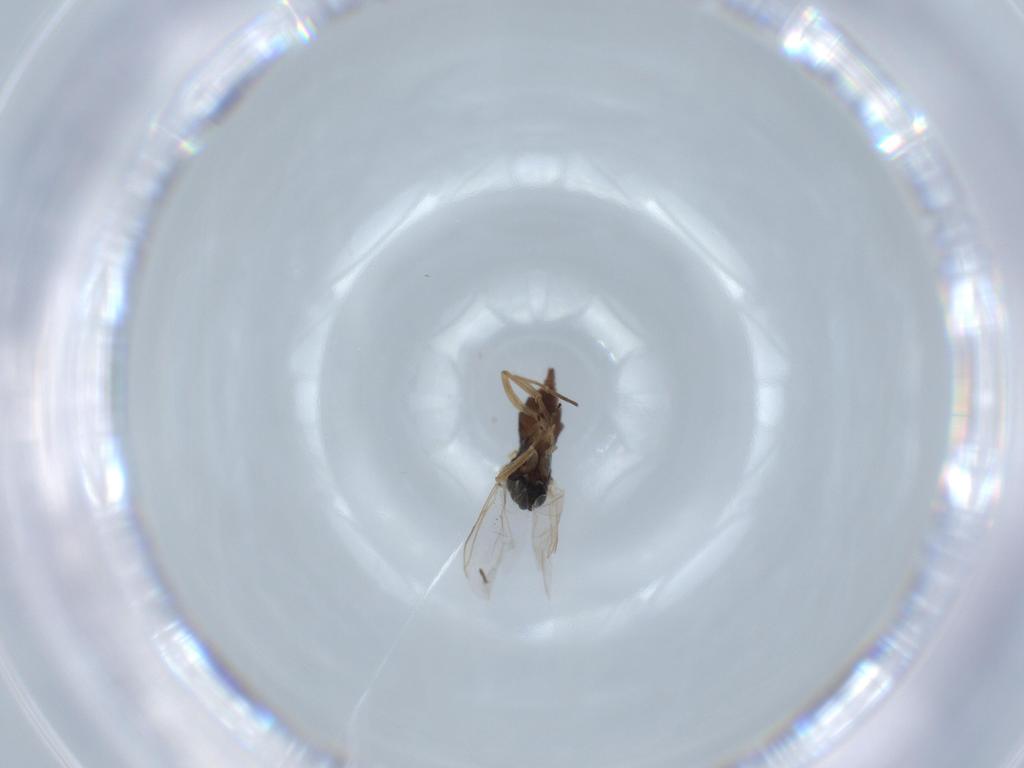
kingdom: Animalia
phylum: Arthropoda
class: Insecta
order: Diptera
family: Sciaridae
